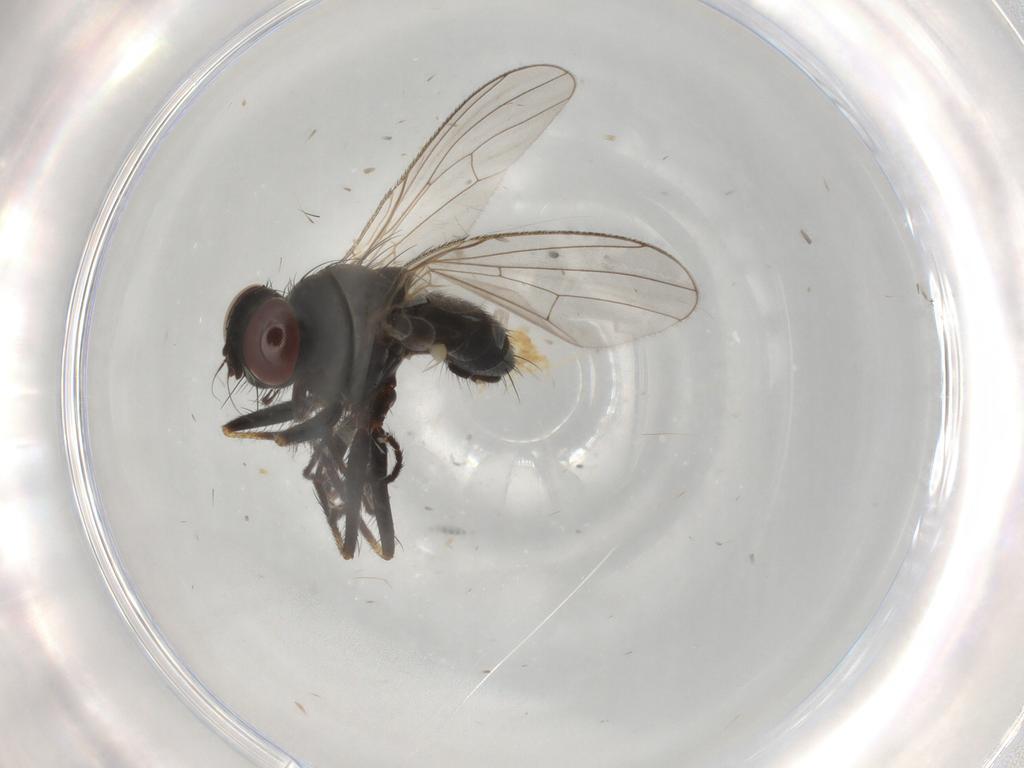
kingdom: Animalia
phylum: Arthropoda
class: Insecta
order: Diptera
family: Muscidae
